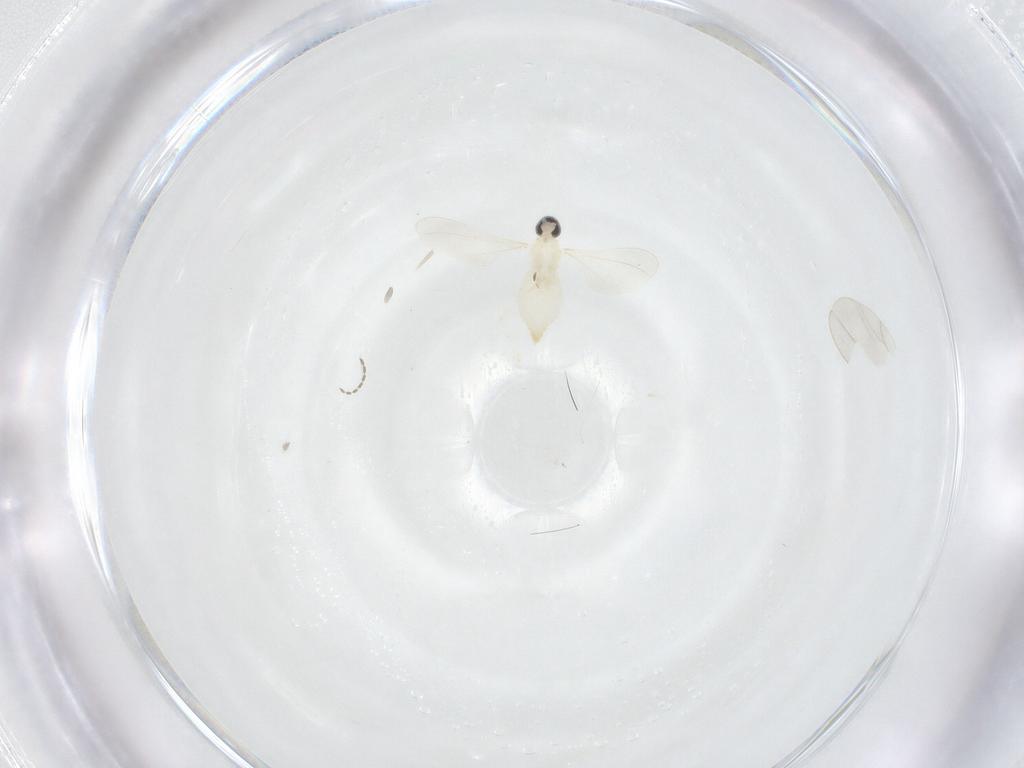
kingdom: Animalia
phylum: Arthropoda
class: Insecta
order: Diptera
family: Cecidomyiidae
